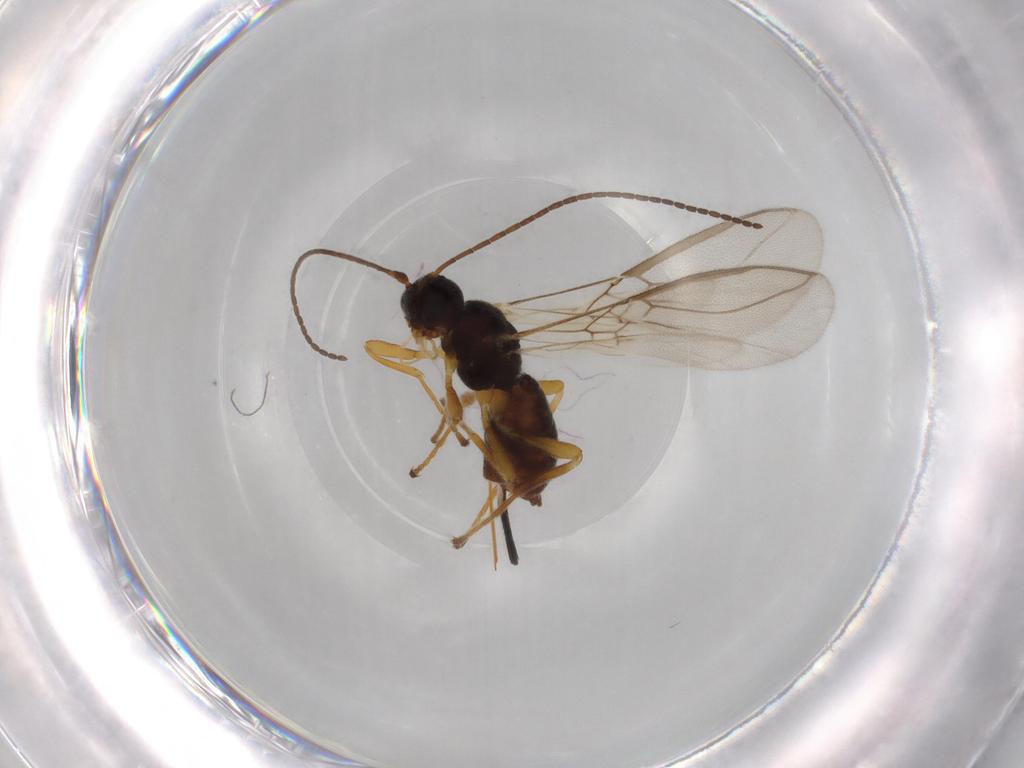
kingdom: Animalia
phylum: Arthropoda
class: Insecta
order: Hymenoptera
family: Braconidae
